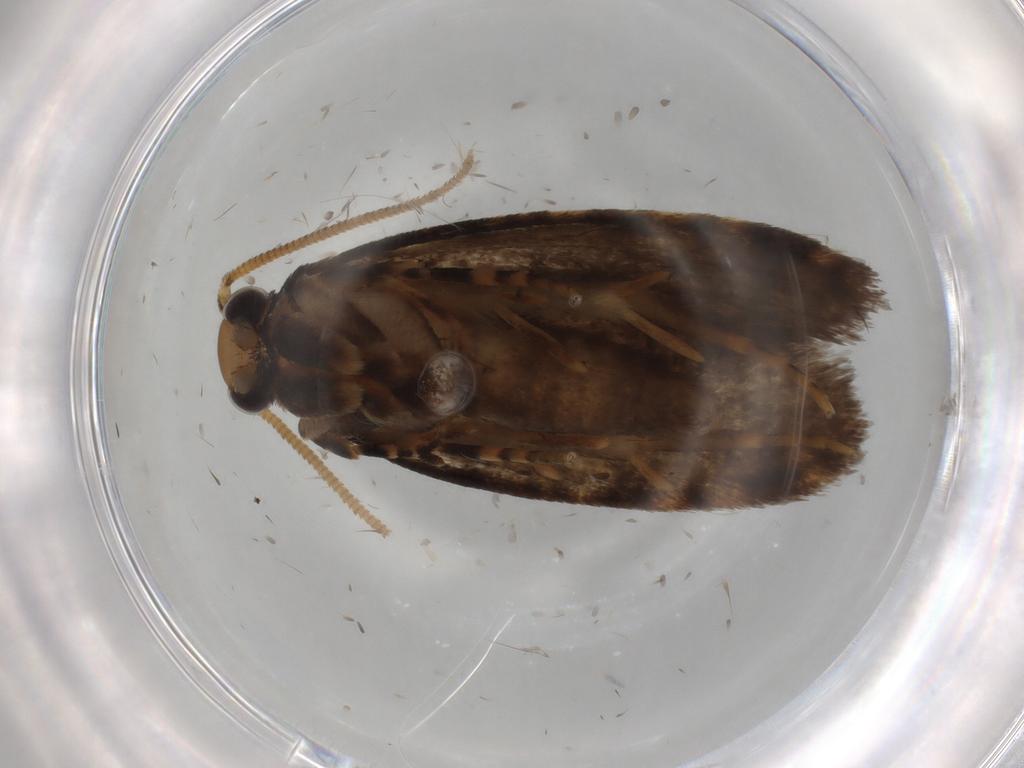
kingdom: Animalia
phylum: Arthropoda
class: Insecta
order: Lepidoptera
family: Tineidae
